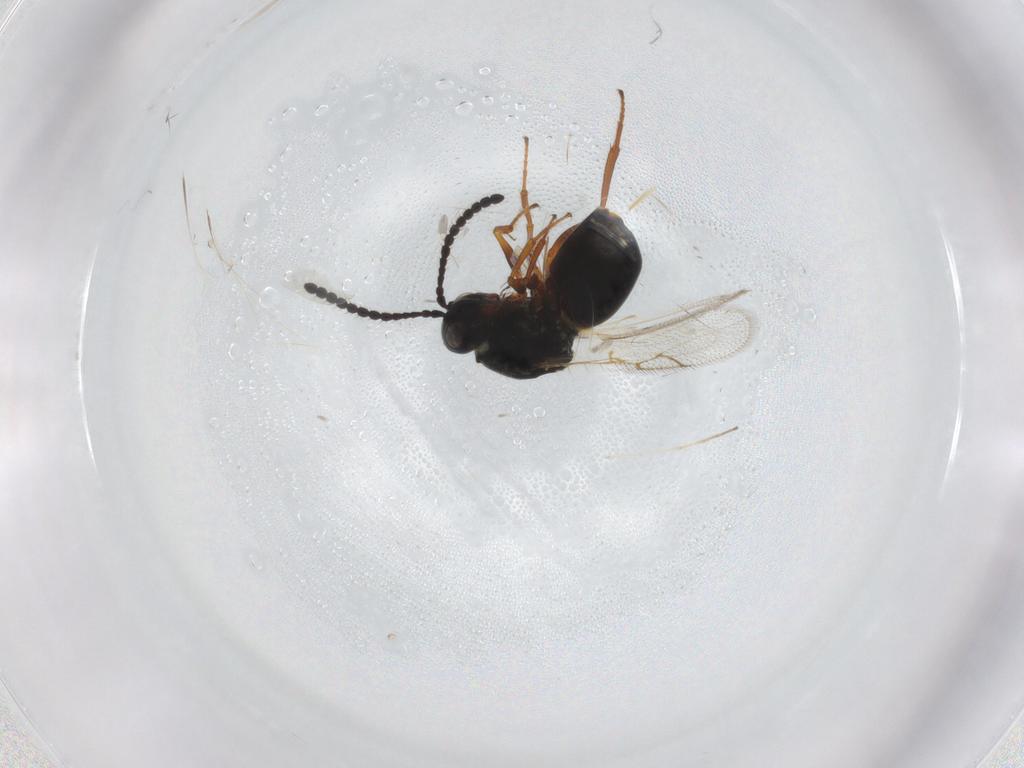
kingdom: Animalia
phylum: Arthropoda
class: Insecta
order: Hymenoptera
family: Figitidae
